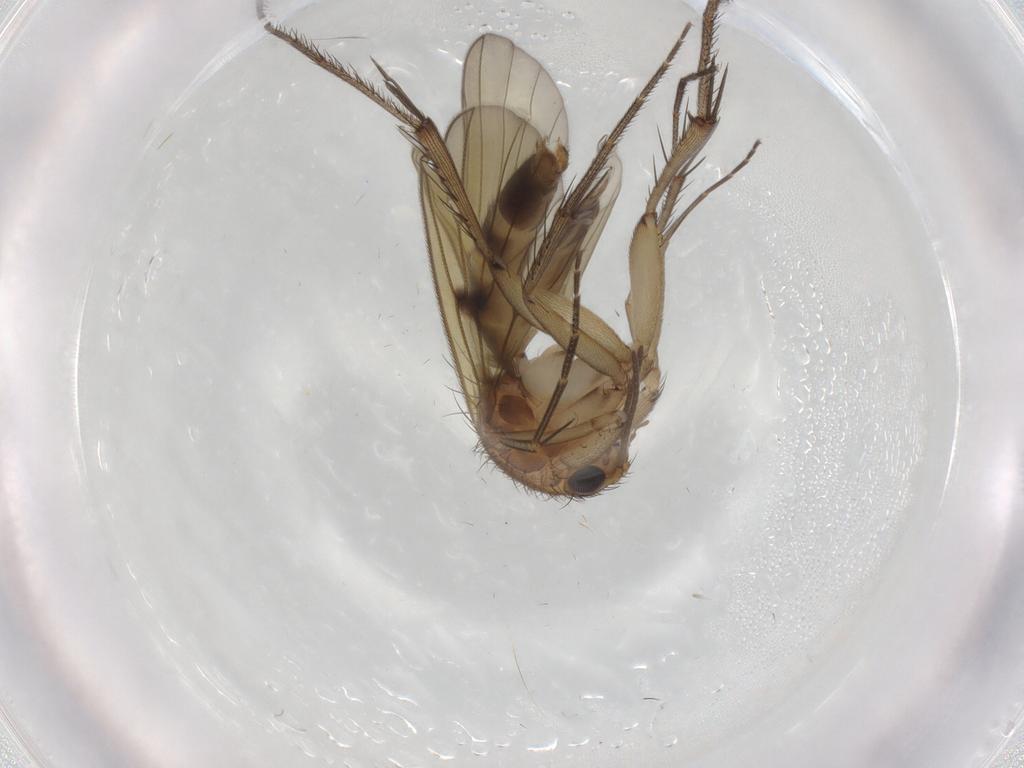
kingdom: Animalia
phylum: Arthropoda
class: Insecta
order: Diptera
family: Mycetophilidae
